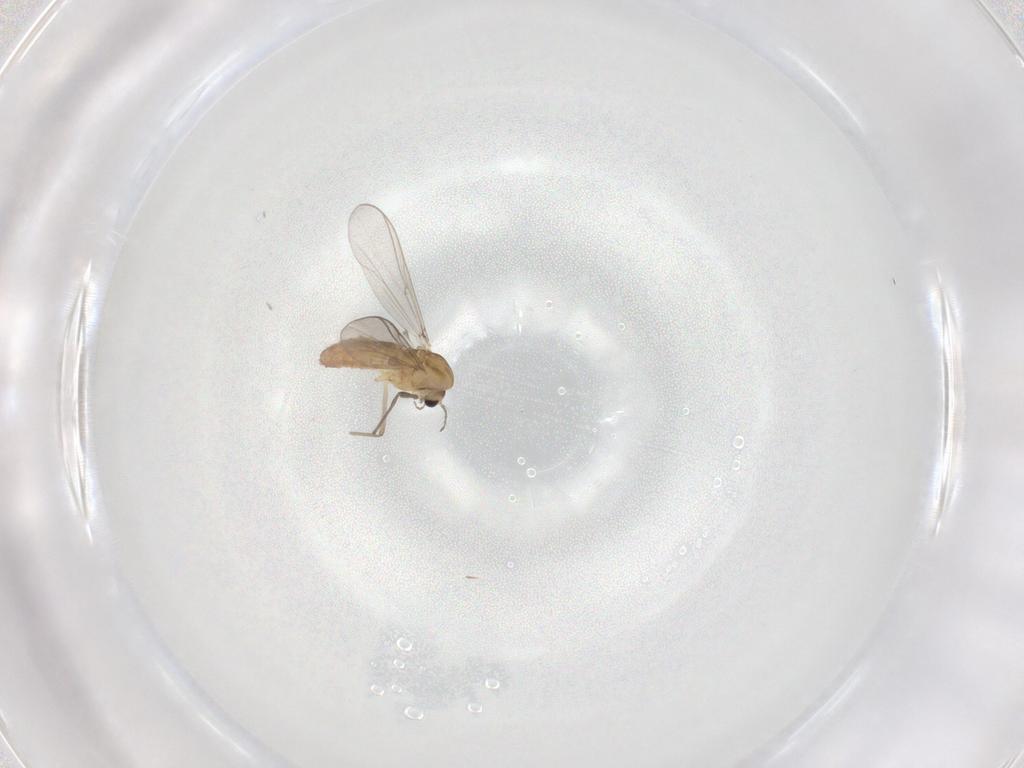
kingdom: Animalia
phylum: Arthropoda
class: Insecta
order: Diptera
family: Chironomidae
